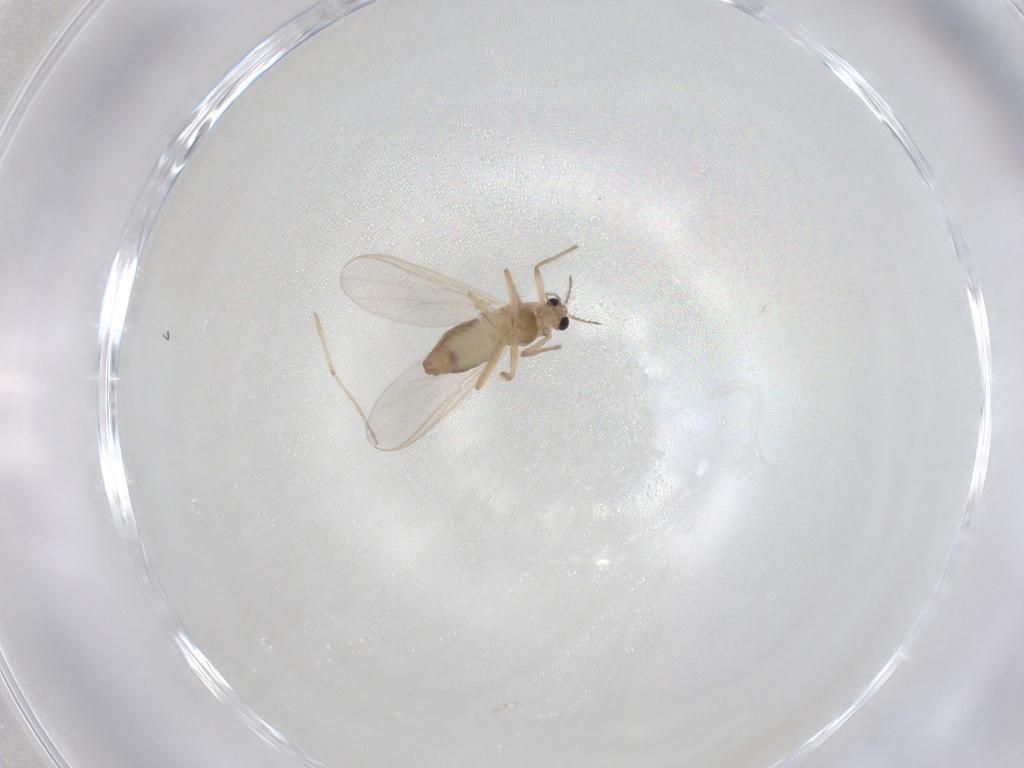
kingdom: Animalia
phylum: Arthropoda
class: Insecta
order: Diptera
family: Chironomidae
